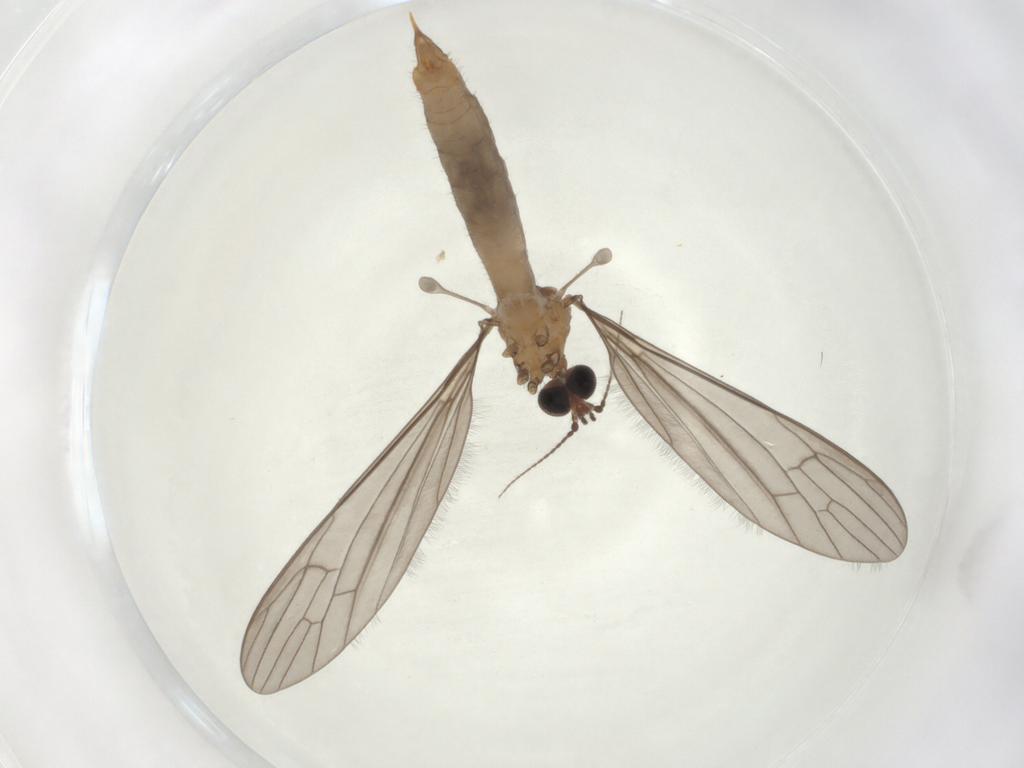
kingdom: Animalia
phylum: Arthropoda
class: Insecta
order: Diptera
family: Limoniidae
